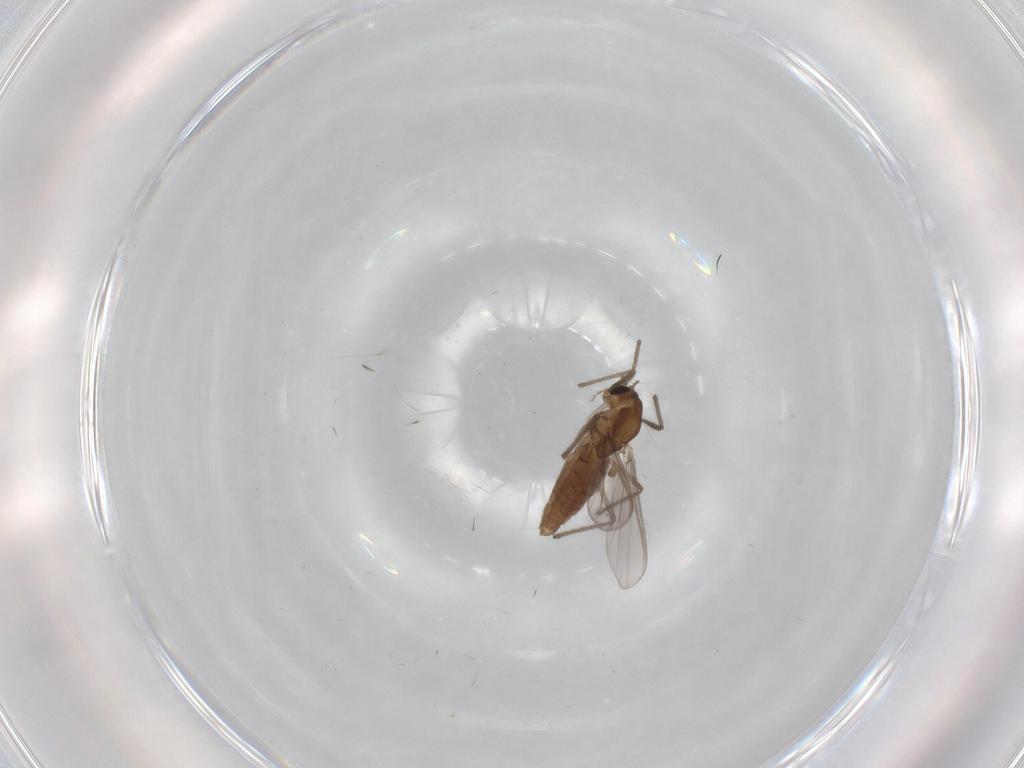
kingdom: Animalia
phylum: Arthropoda
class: Insecta
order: Diptera
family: Chironomidae
